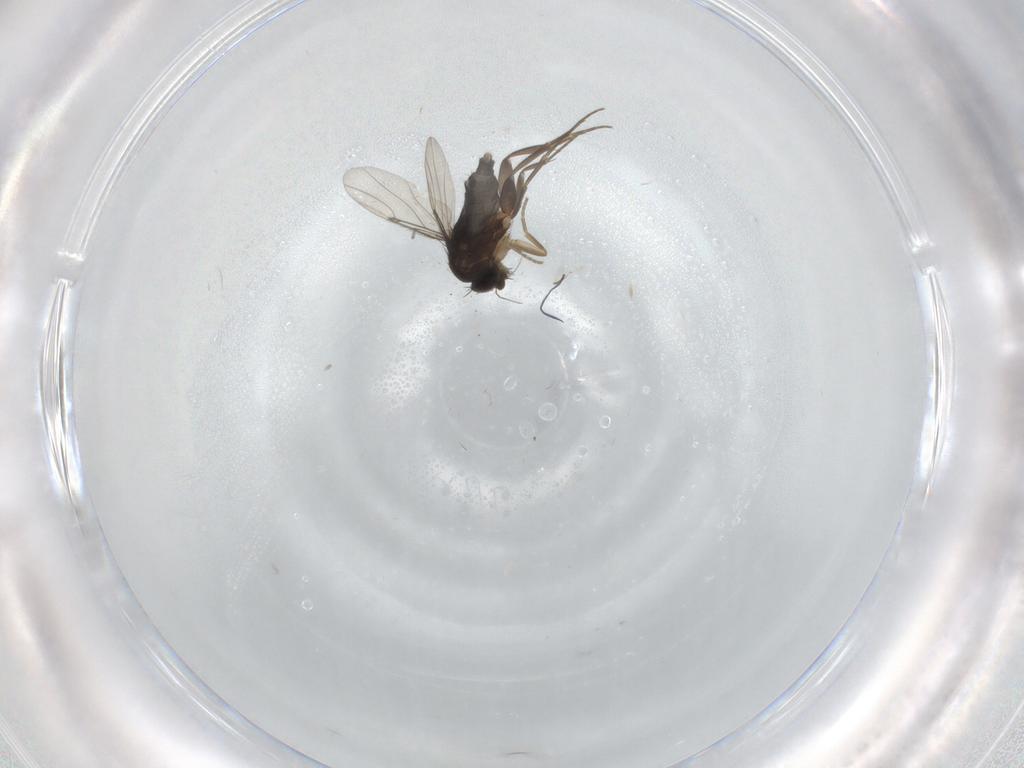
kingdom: Animalia
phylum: Arthropoda
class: Insecta
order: Diptera
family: Phoridae
